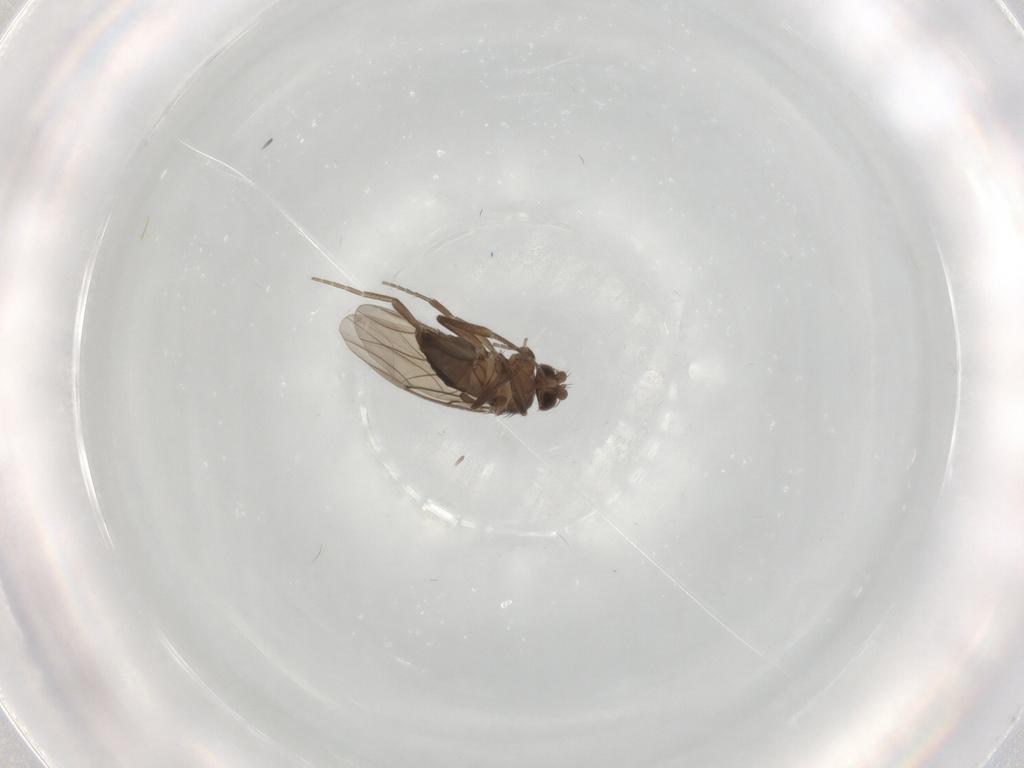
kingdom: Animalia
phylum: Arthropoda
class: Insecta
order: Diptera
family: Phoridae
